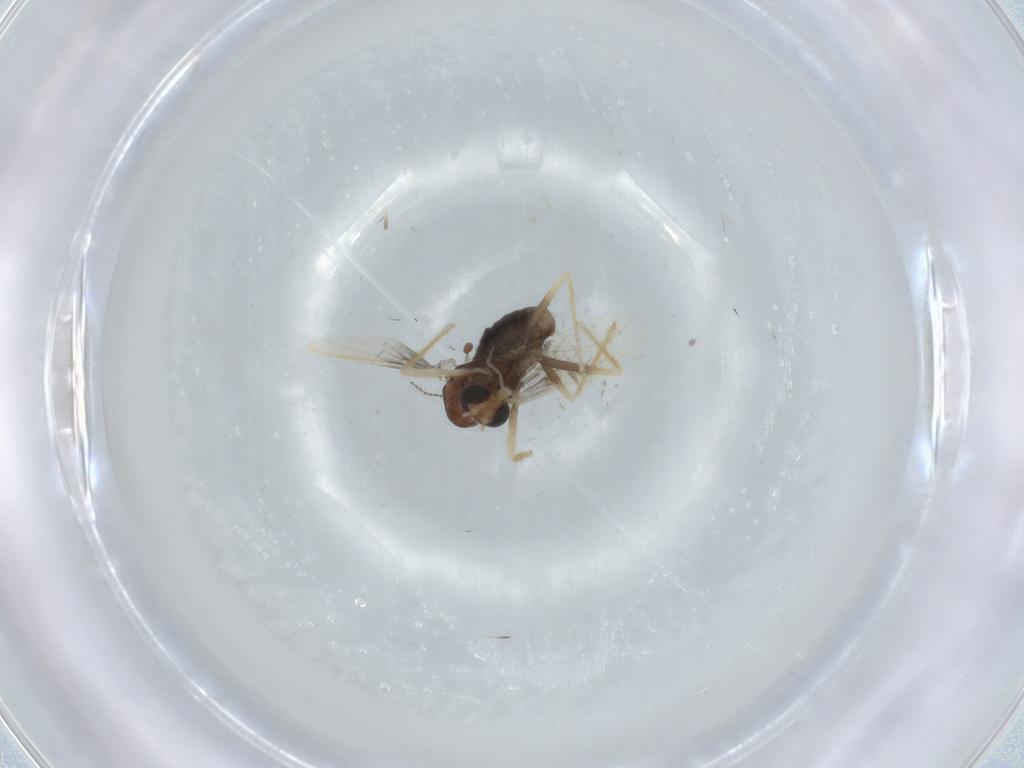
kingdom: Animalia
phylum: Arthropoda
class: Insecta
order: Diptera
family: Chironomidae
